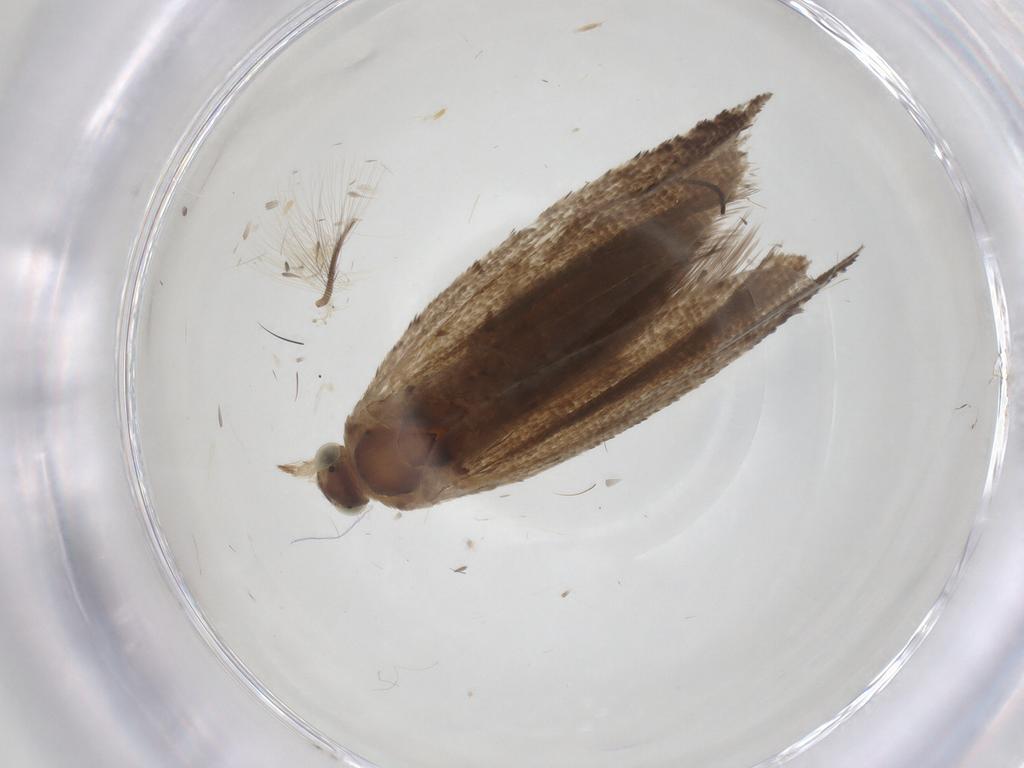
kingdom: Animalia
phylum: Arthropoda
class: Insecta
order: Lepidoptera
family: Tortricidae
